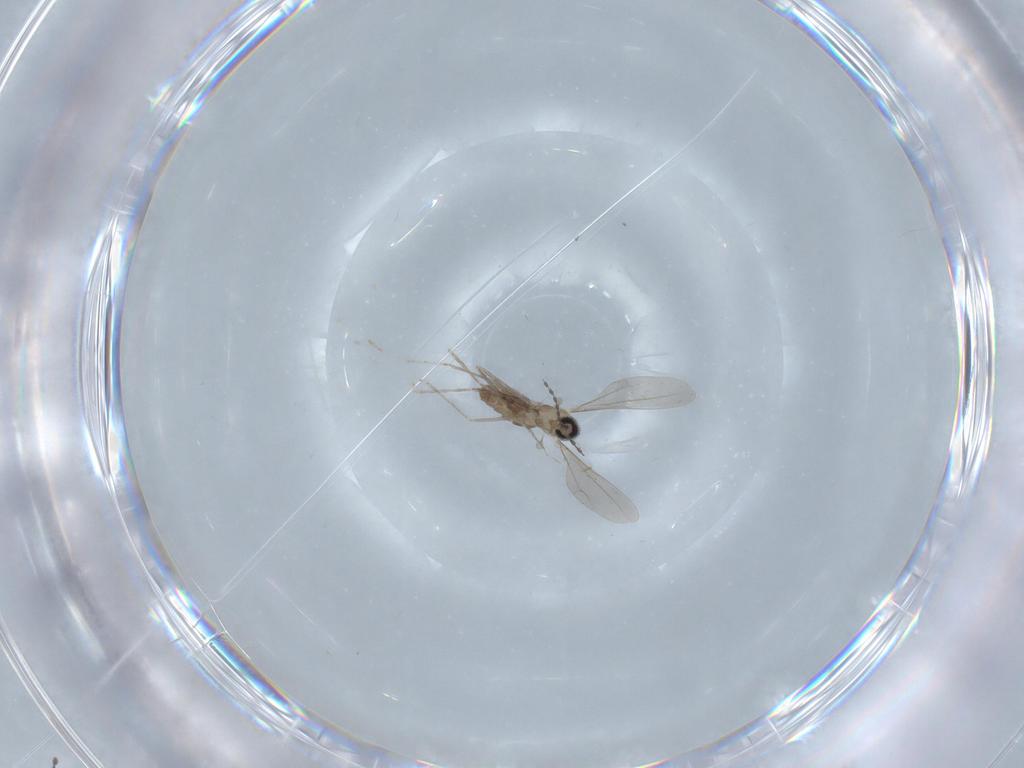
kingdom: Animalia
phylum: Arthropoda
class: Insecta
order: Diptera
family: Cecidomyiidae
